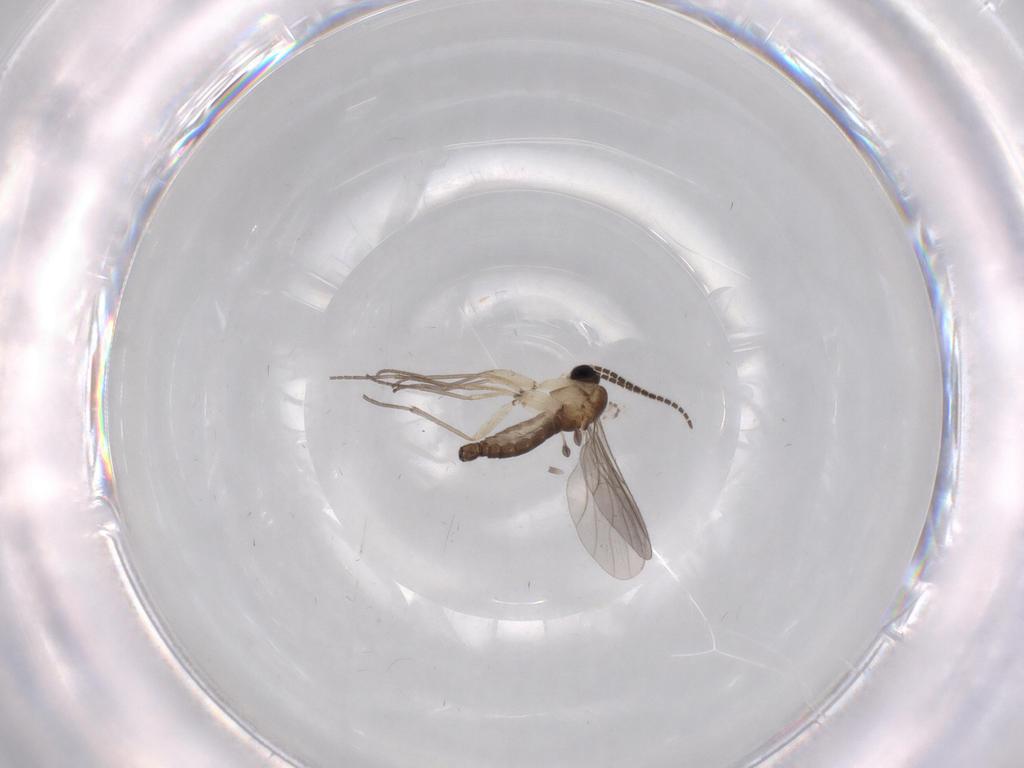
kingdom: Animalia
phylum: Arthropoda
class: Insecta
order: Diptera
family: Sciaridae
